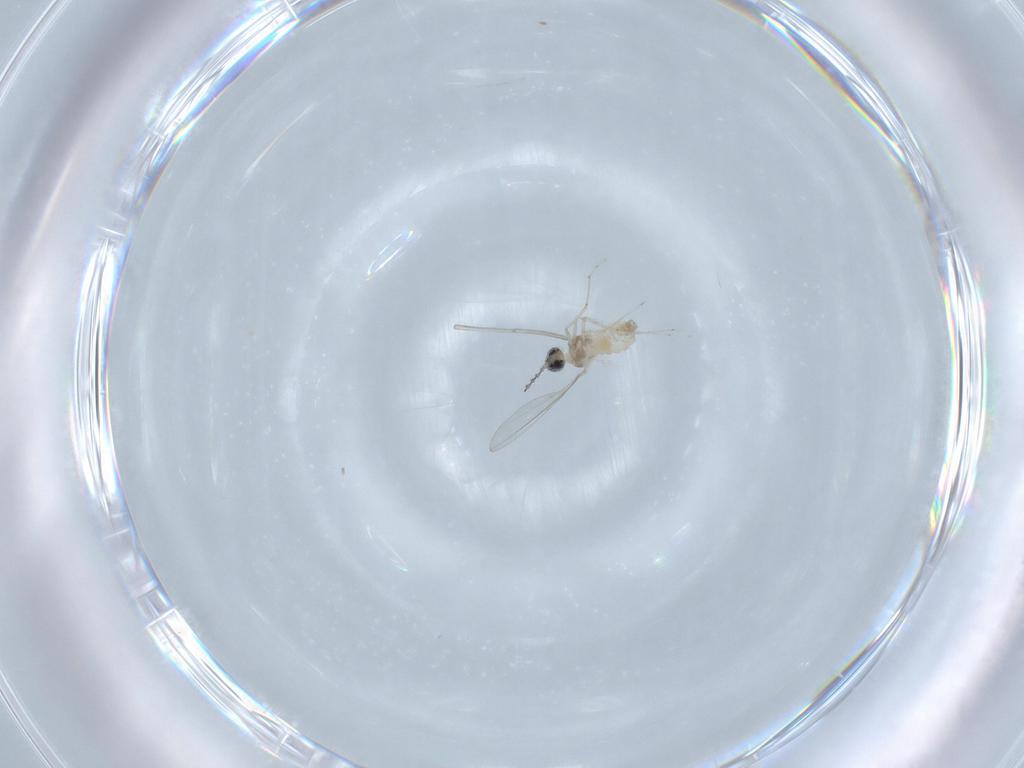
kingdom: Animalia
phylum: Arthropoda
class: Insecta
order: Diptera
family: Cecidomyiidae
